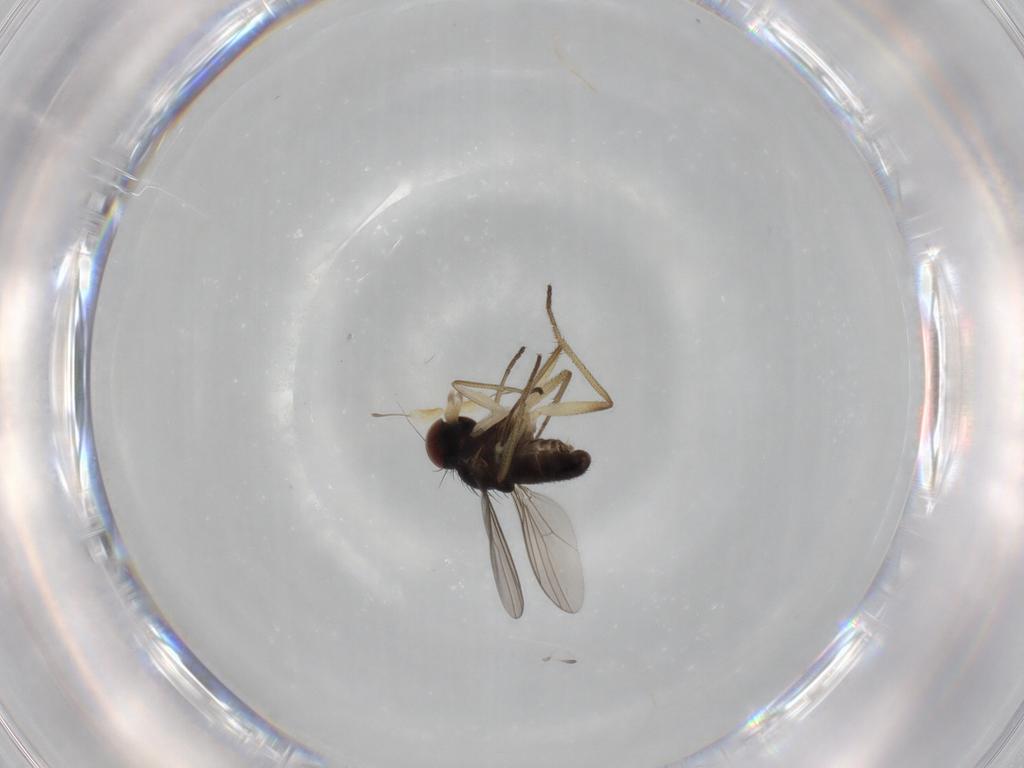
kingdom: Animalia
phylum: Arthropoda
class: Insecta
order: Diptera
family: Dolichopodidae
